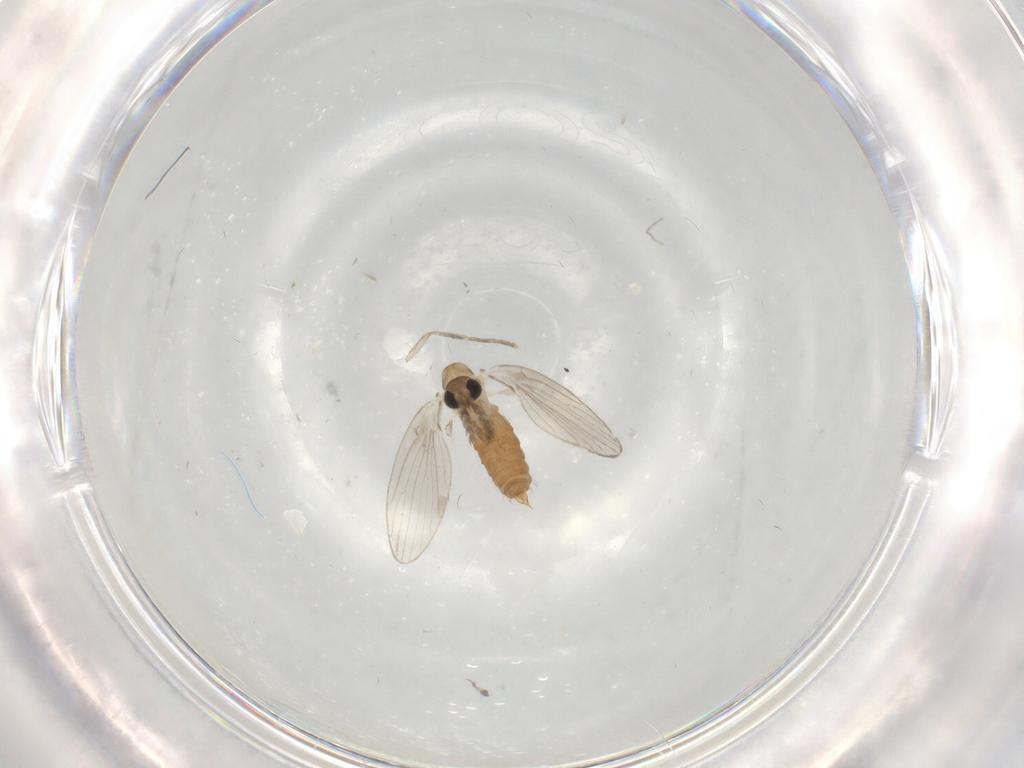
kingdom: Animalia
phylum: Arthropoda
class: Insecta
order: Diptera
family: Psychodidae
